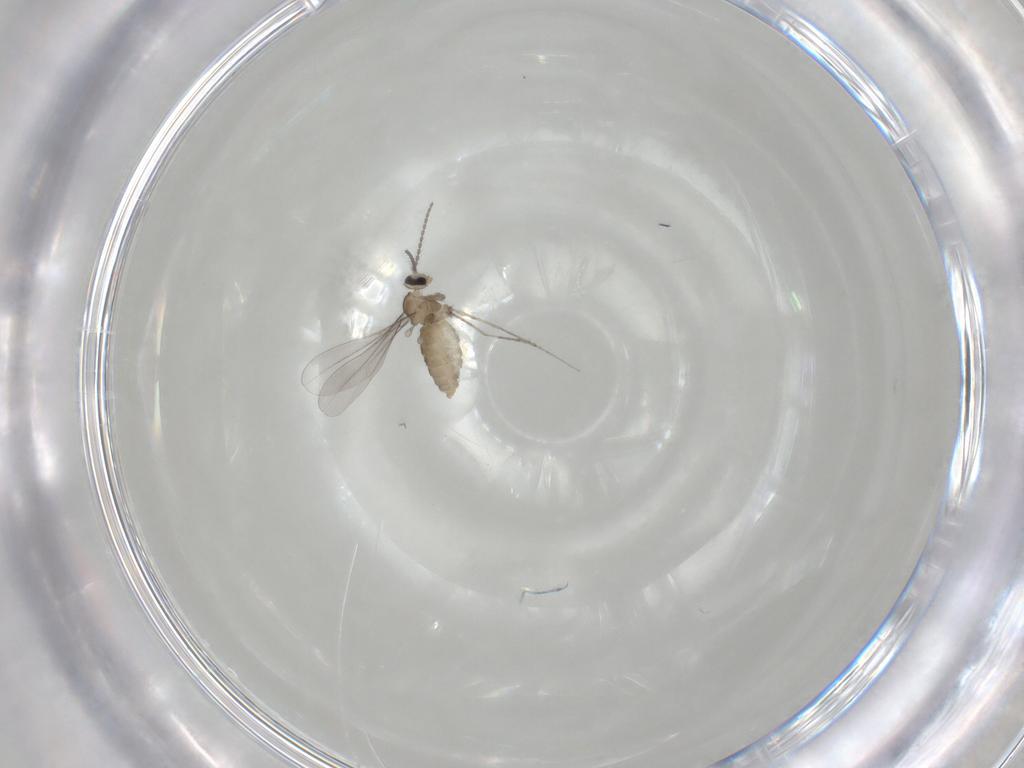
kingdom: Animalia
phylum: Arthropoda
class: Insecta
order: Diptera
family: Cecidomyiidae
